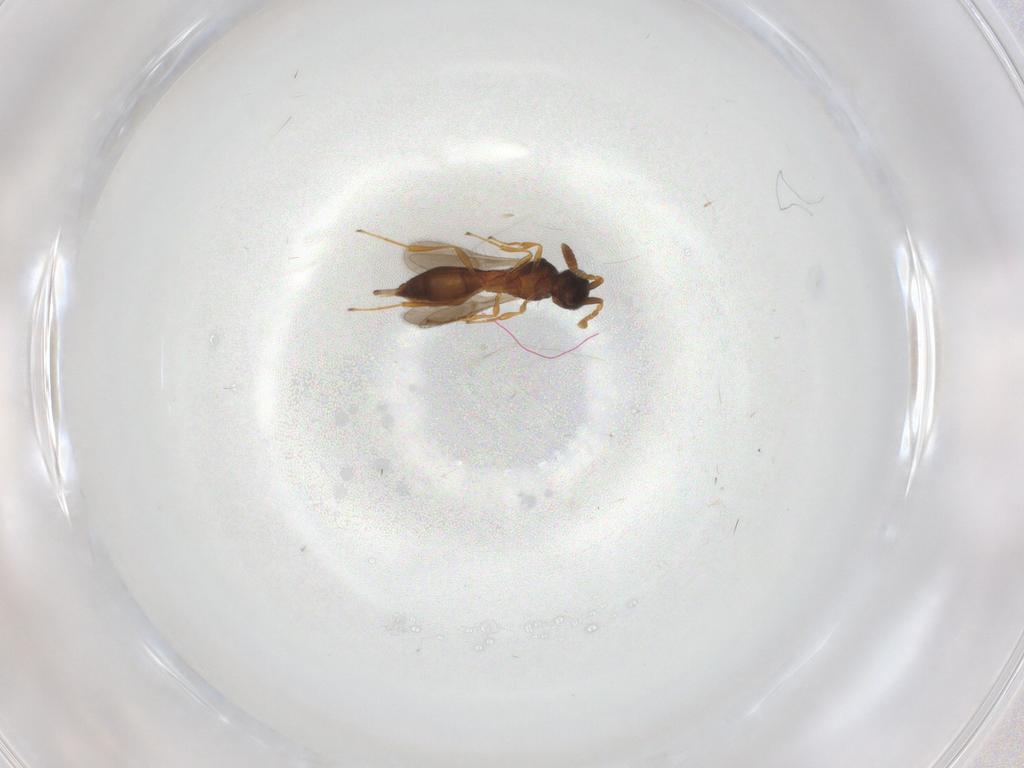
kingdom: Animalia
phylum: Arthropoda
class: Insecta
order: Hymenoptera
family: Scelionidae
